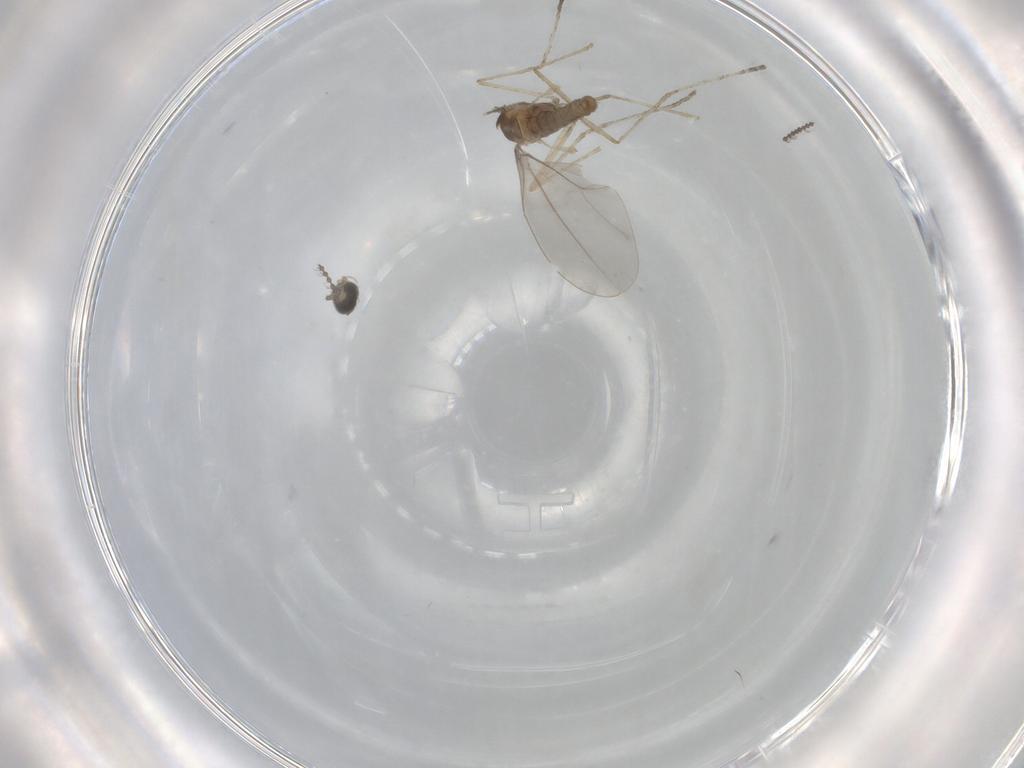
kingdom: Animalia
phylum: Arthropoda
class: Insecta
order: Diptera
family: Cecidomyiidae
